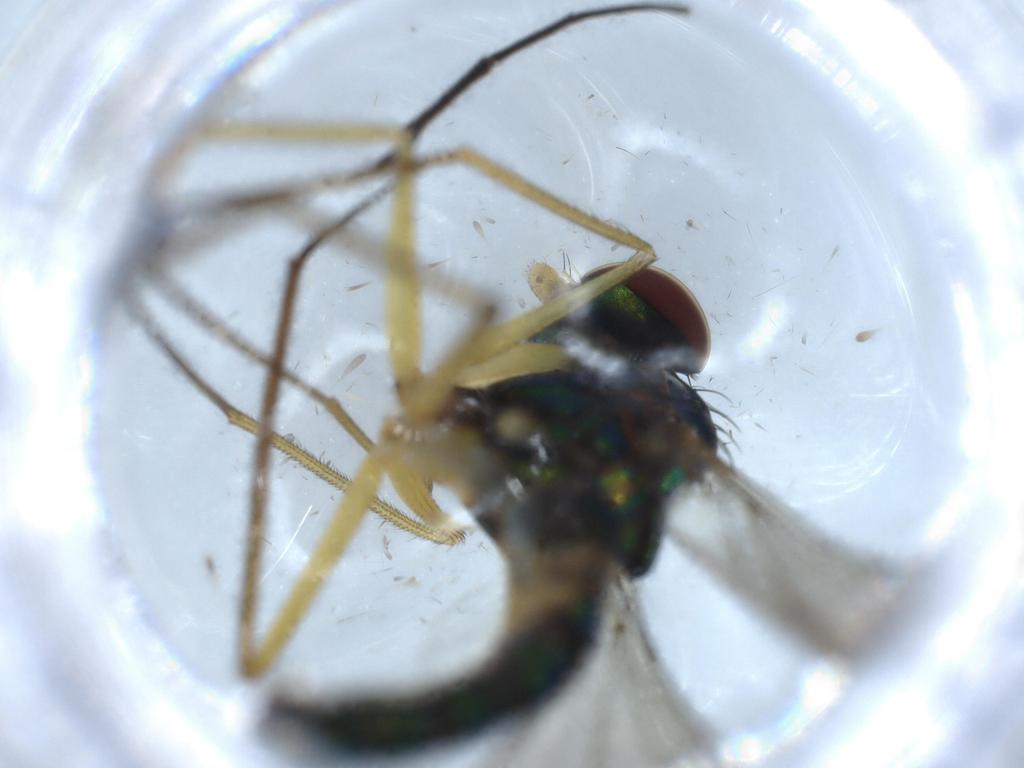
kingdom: Animalia
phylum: Arthropoda
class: Insecta
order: Diptera
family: Dolichopodidae
